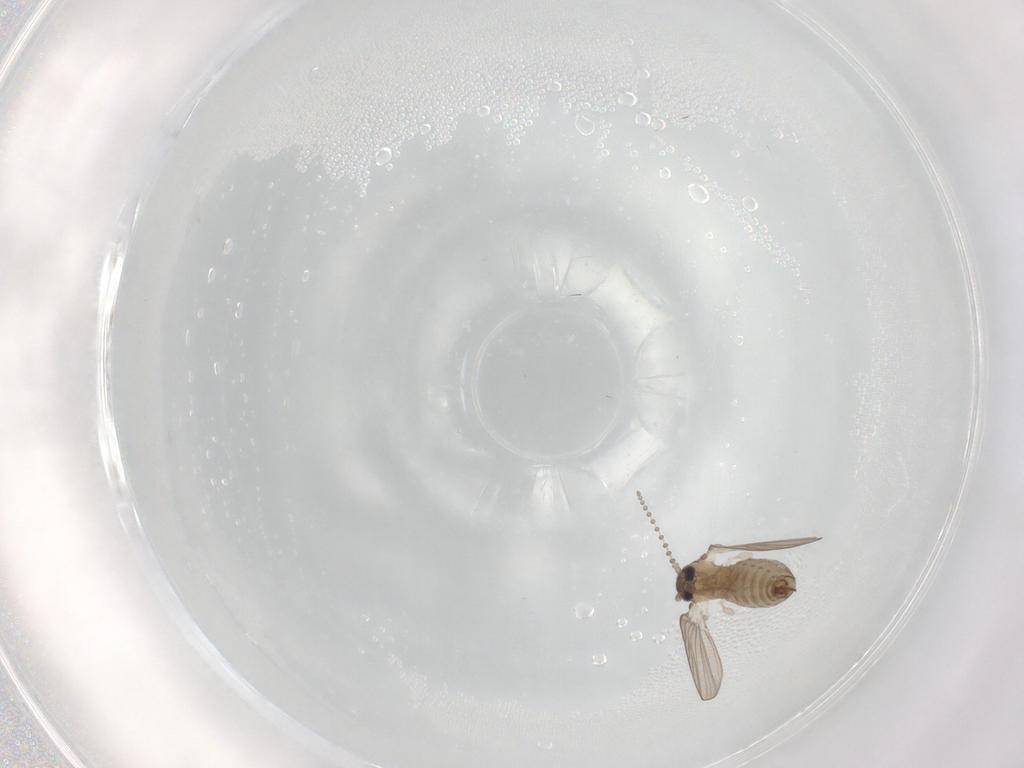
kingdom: Animalia
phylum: Arthropoda
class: Insecta
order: Diptera
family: Psychodidae
